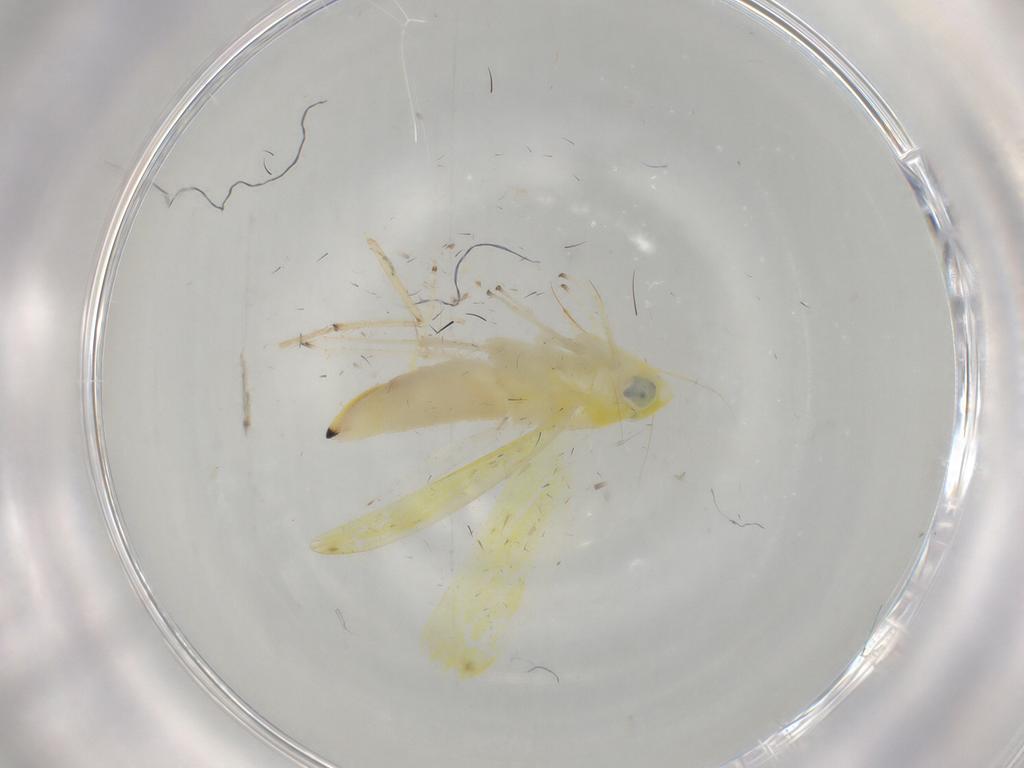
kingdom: Animalia
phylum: Arthropoda
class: Insecta
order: Hemiptera
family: Cicadellidae
